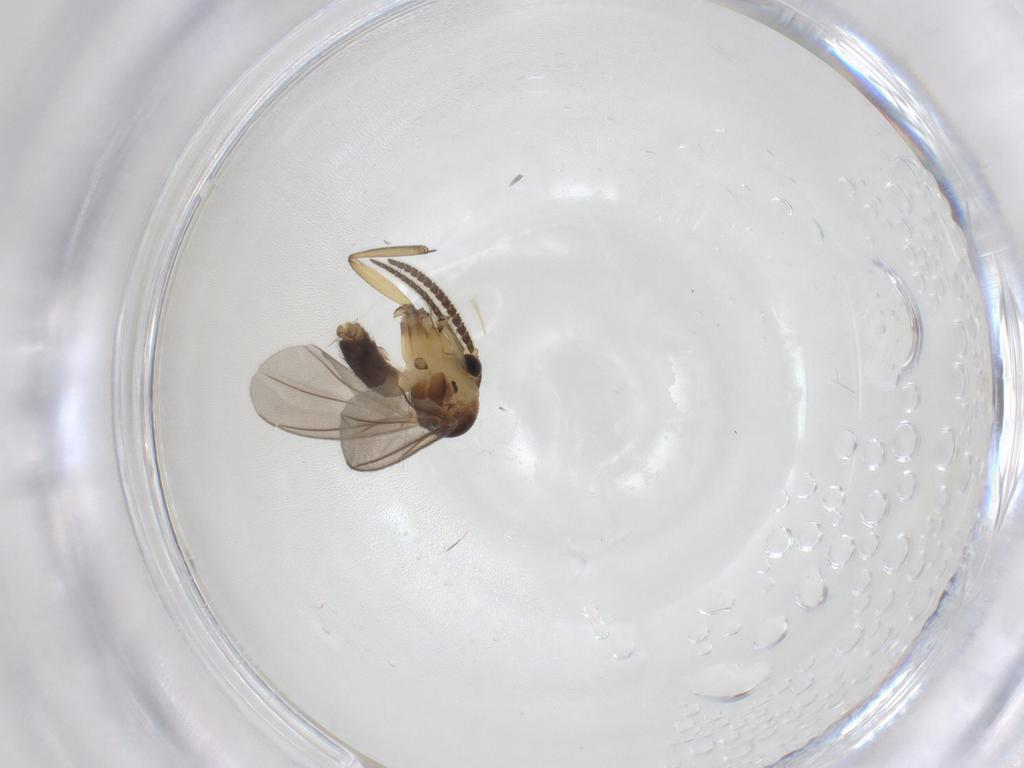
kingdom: Animalia
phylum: Arthropoda
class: Insecta
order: Diptera
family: Mycetophilidae
